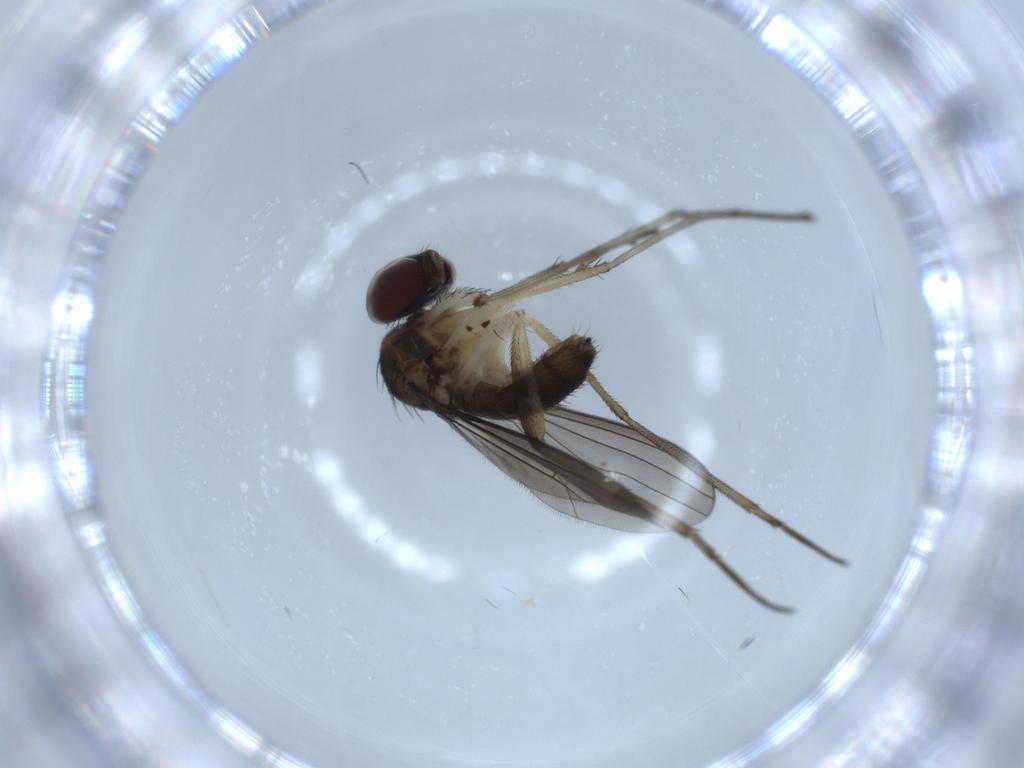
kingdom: Animalia
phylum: Arthropoda
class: Insecta
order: Diptera
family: Dolichopodidae
